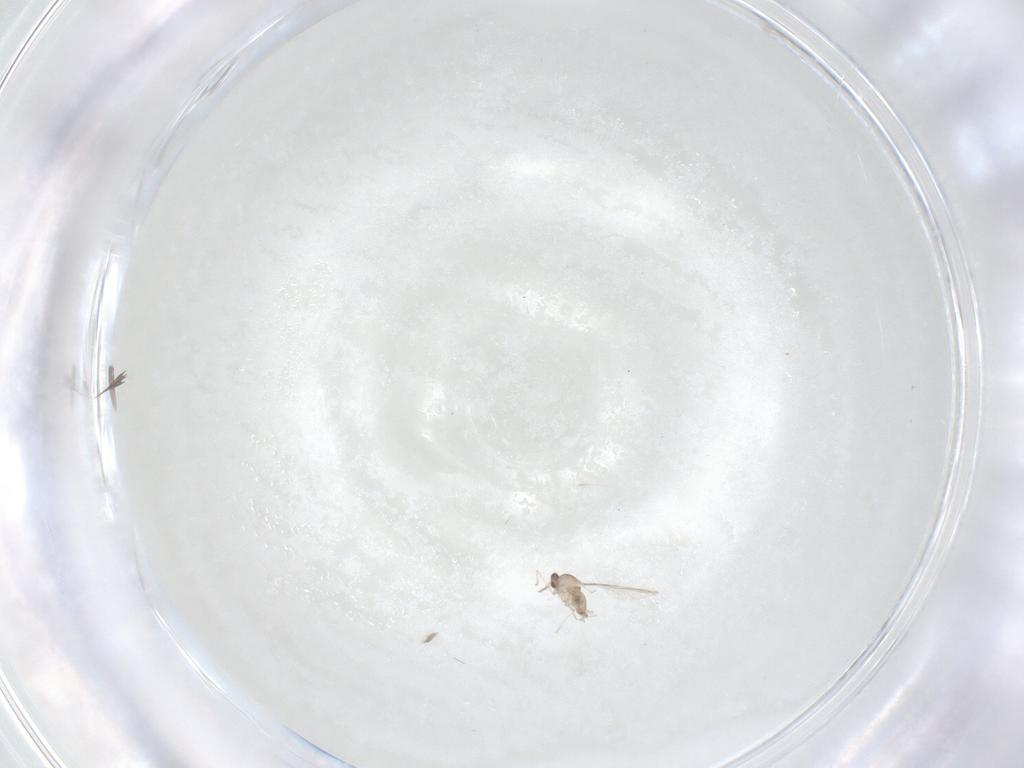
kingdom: Animalia
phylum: Arthropoda
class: Insecta
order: Diptera
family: Cecidomyiidae
